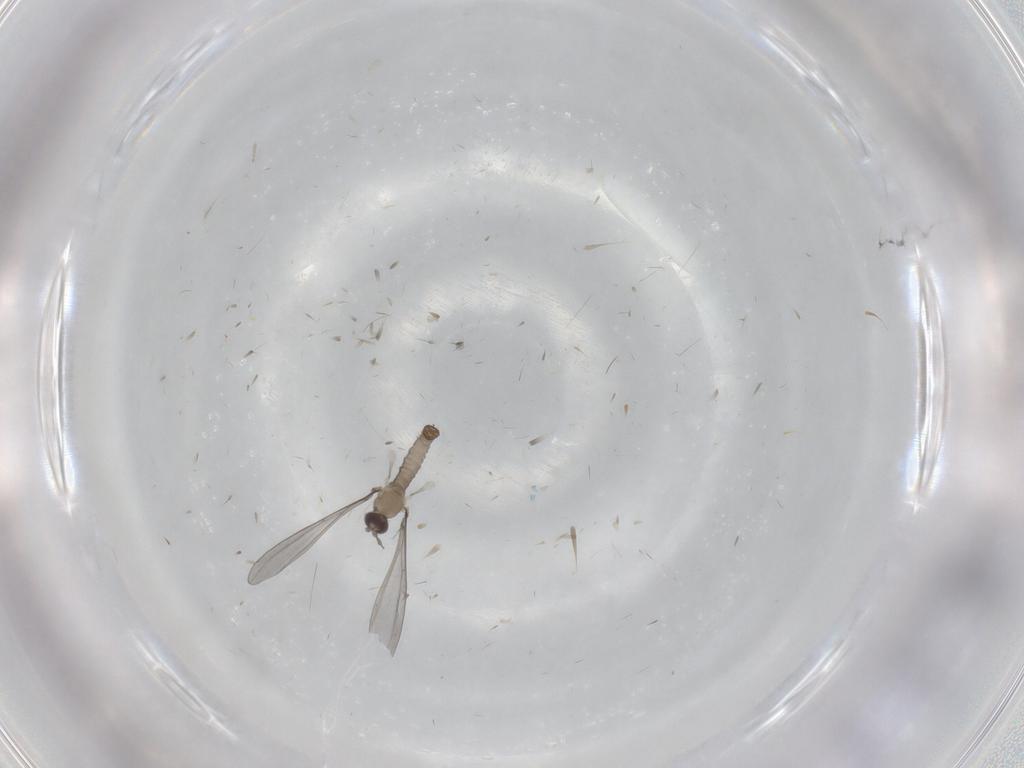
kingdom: Animalia
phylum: Arthropoda
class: Insecta
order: Diptera
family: Cecidomyiidae
